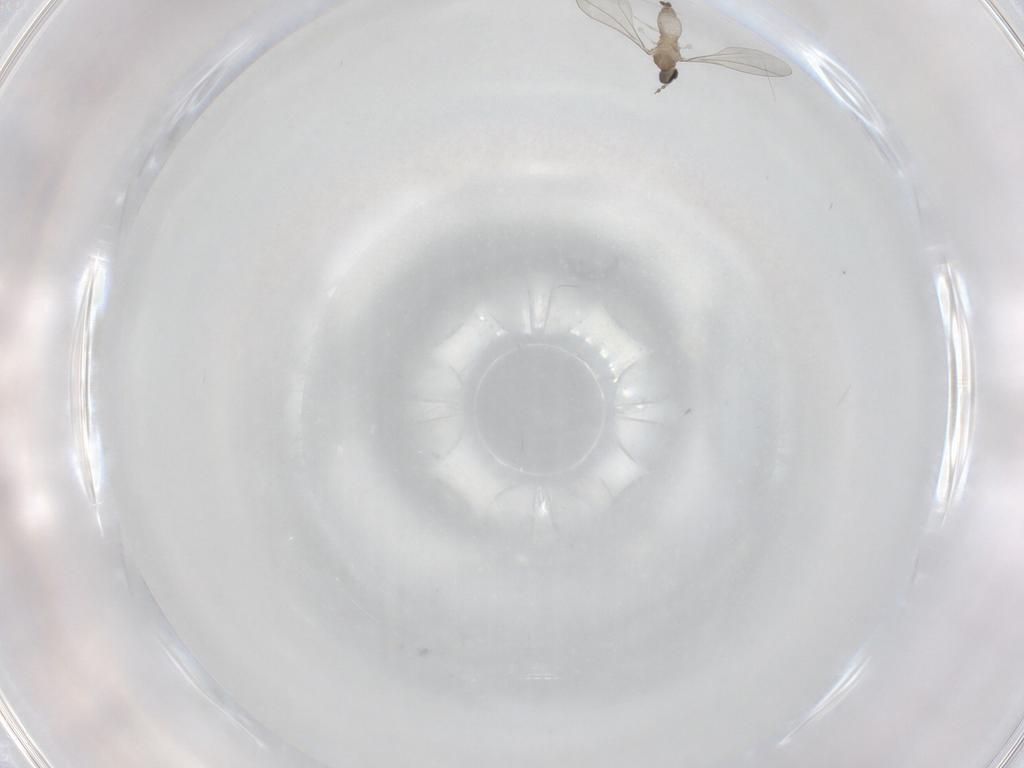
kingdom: Animalia
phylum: Arthropoda
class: Insecta
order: Diptera
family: Cecidomyiidae
